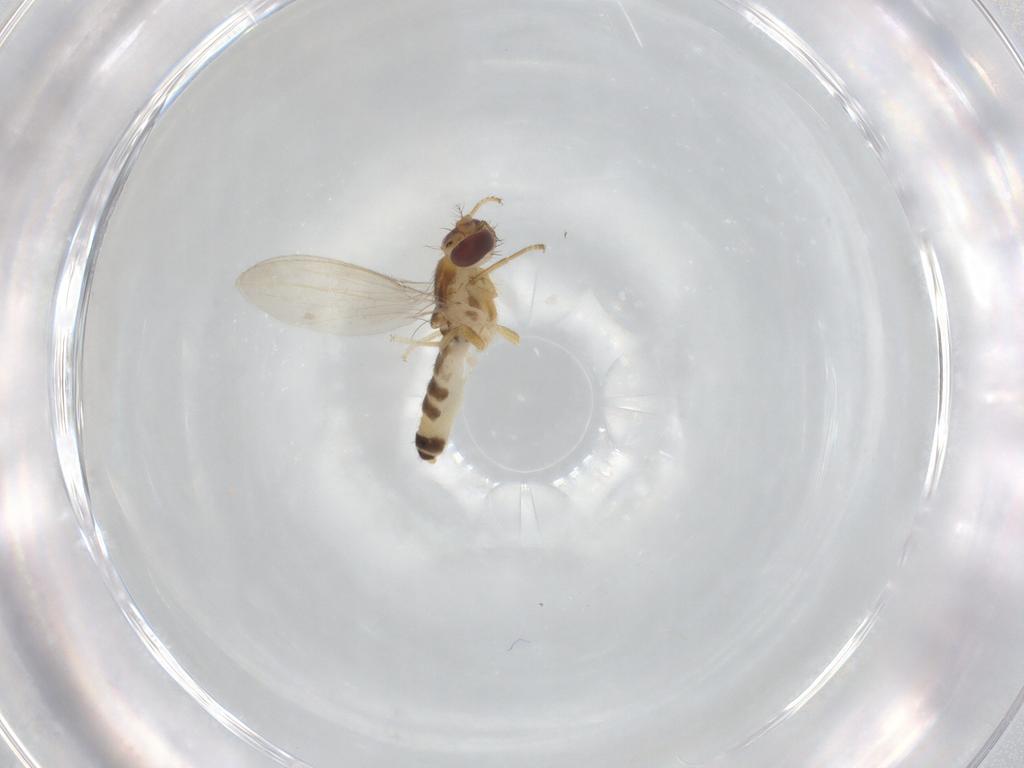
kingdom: Animalia
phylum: Arthropoda
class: Insecta
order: Diptera
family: Periscelididae
